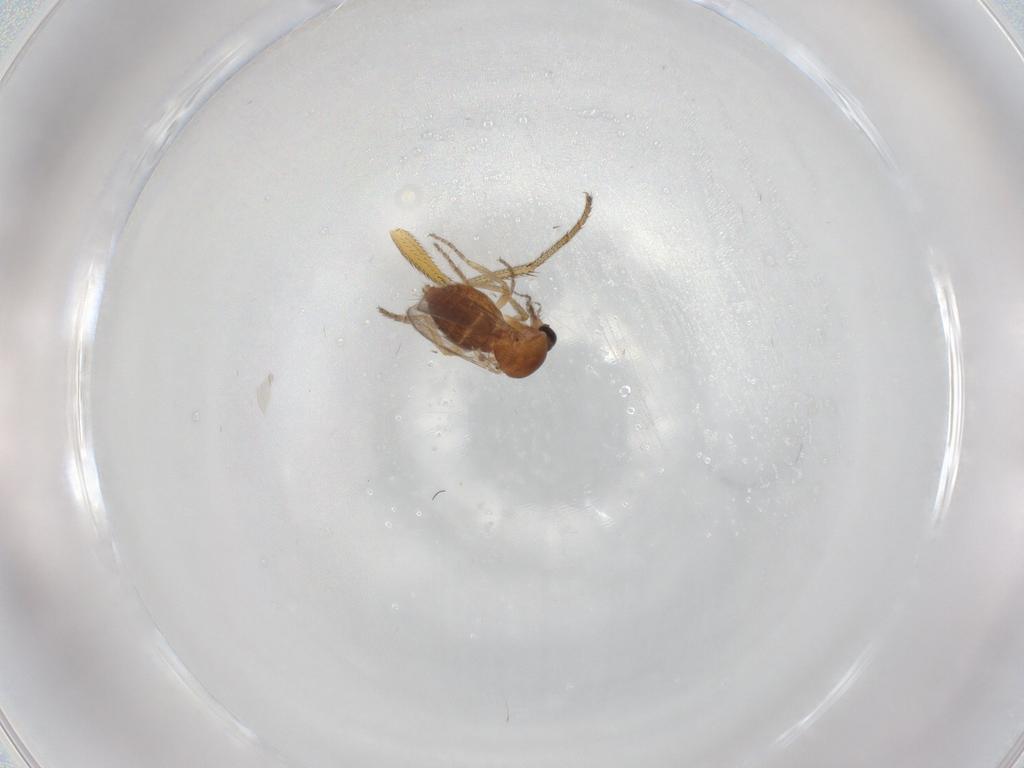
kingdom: Animalia
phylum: Arthropoda
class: Insecta
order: Diptera
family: Ceratopogonidae
